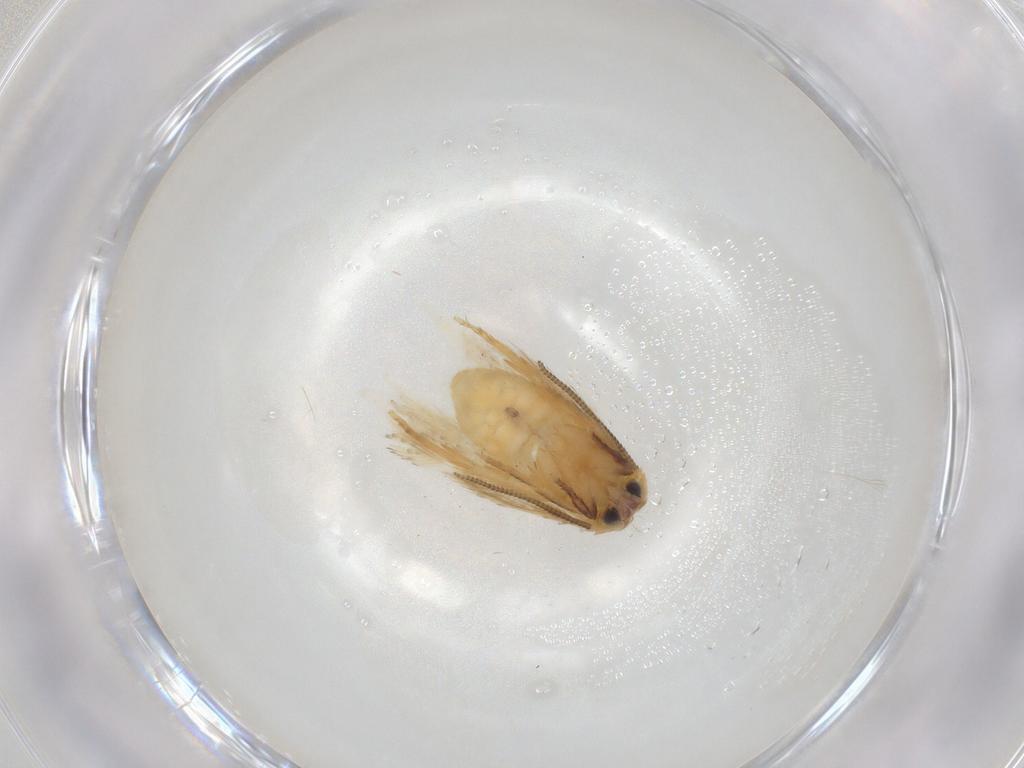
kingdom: Animalia
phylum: Arthropoda
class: Insecta
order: Lepidoptera
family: Nepticulidae
